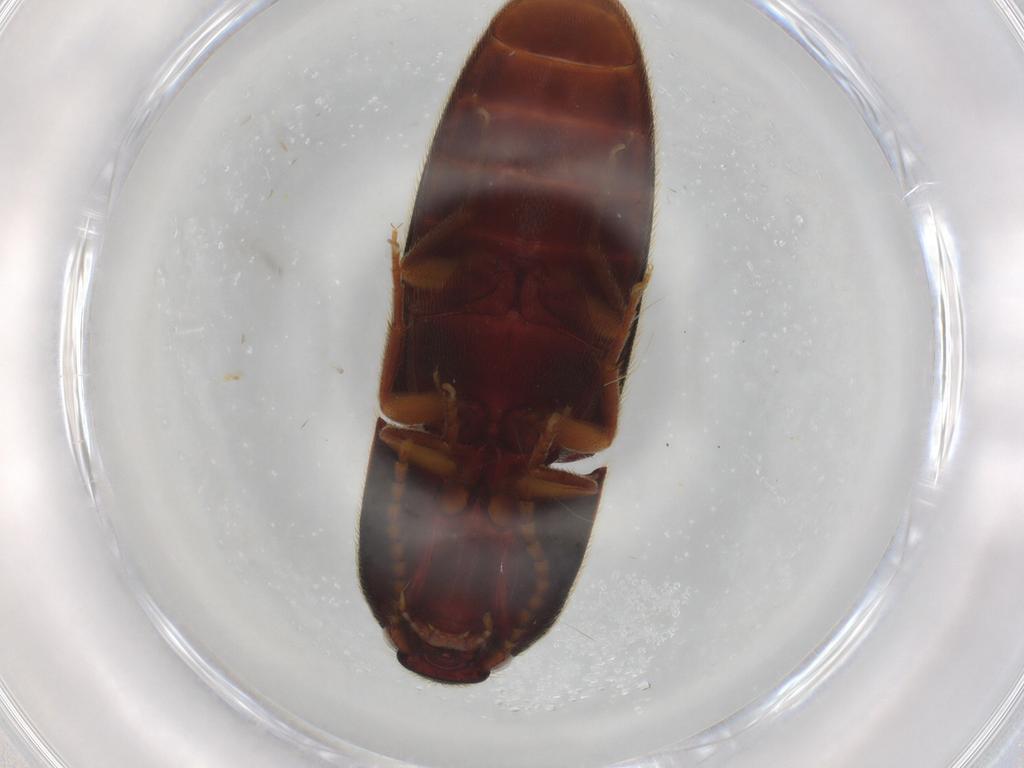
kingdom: Animalia
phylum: Arthropoda
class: Insecta
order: Coleoptera
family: Elateridae
